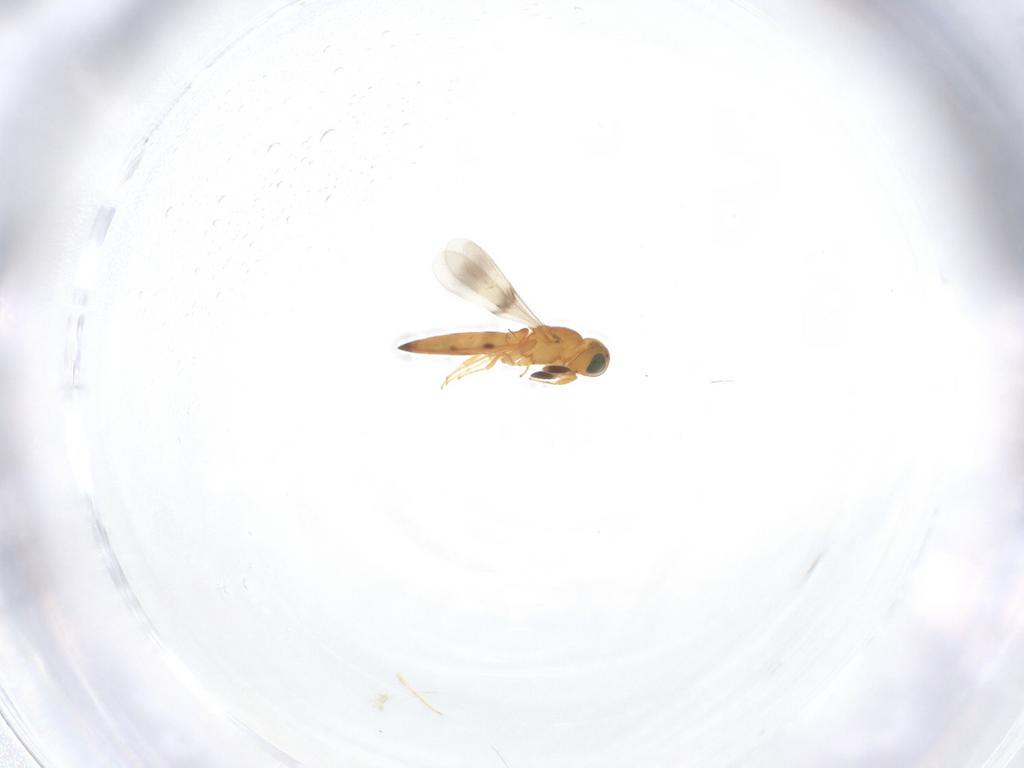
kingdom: Animalia
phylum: Arthropoda
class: Insecta
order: Hymenoptera
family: Scelionidae
